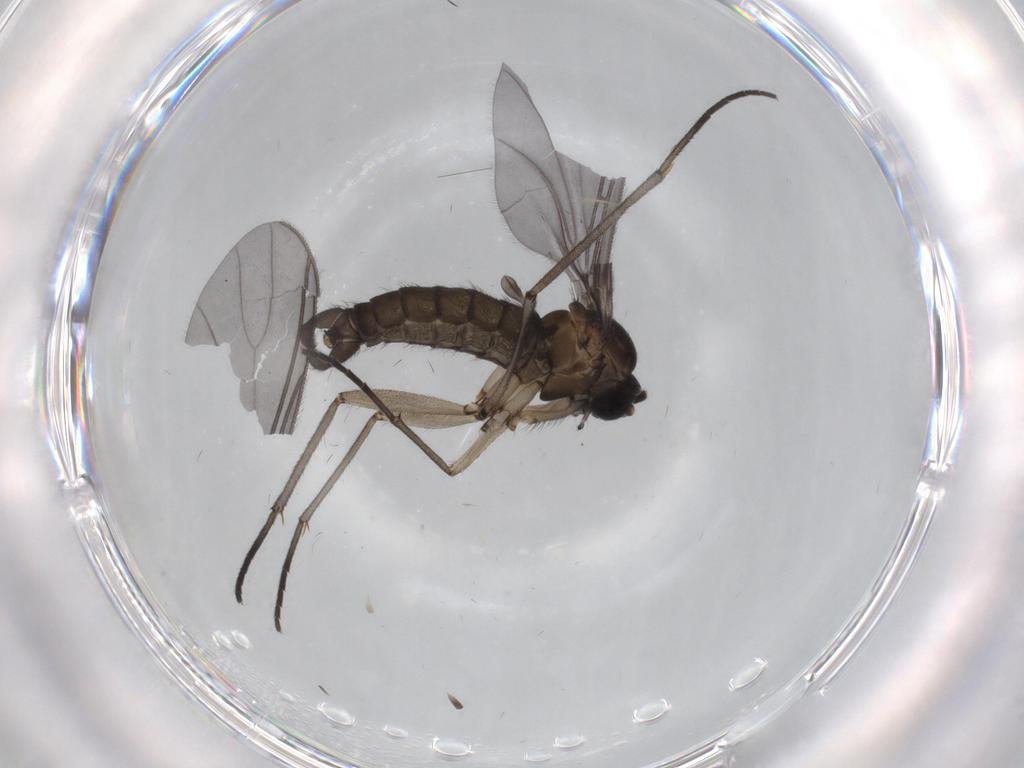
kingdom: Animalia
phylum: Arthropoda
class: Insecta
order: Diptera
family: Sciaridae
